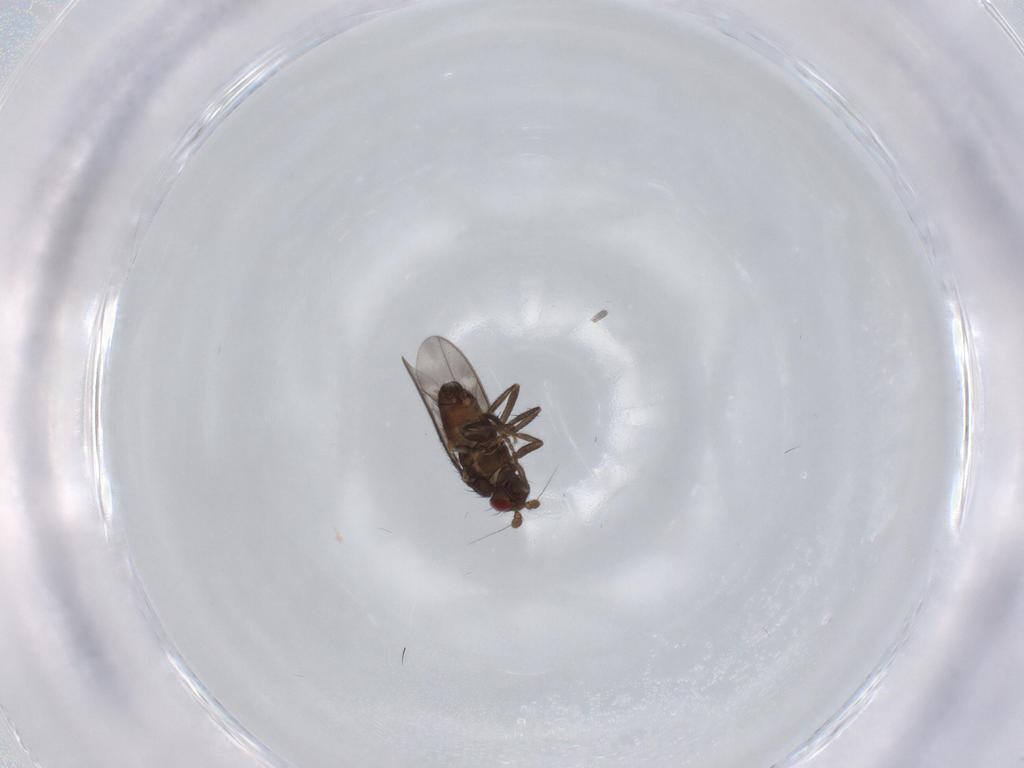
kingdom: Animalia
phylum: Arthropoda
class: Insecta
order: Diptera
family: Sphaeroceridae
